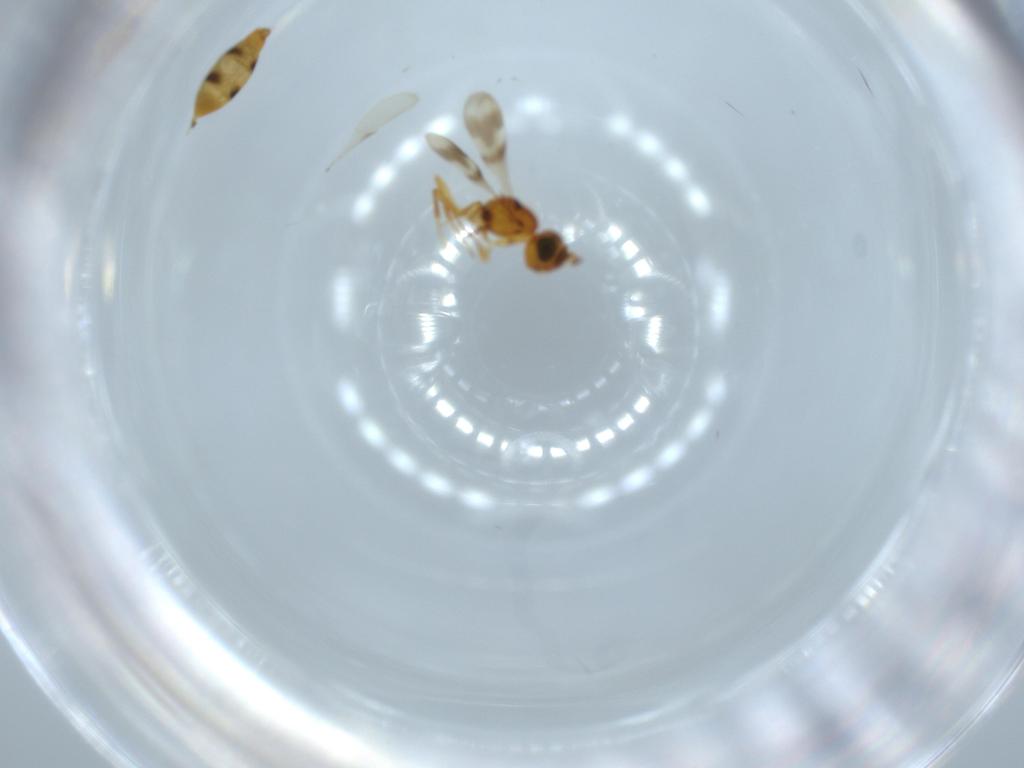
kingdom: Animalia
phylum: Arthropoda
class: Insecta
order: Hymenoptera
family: Scelionidae
